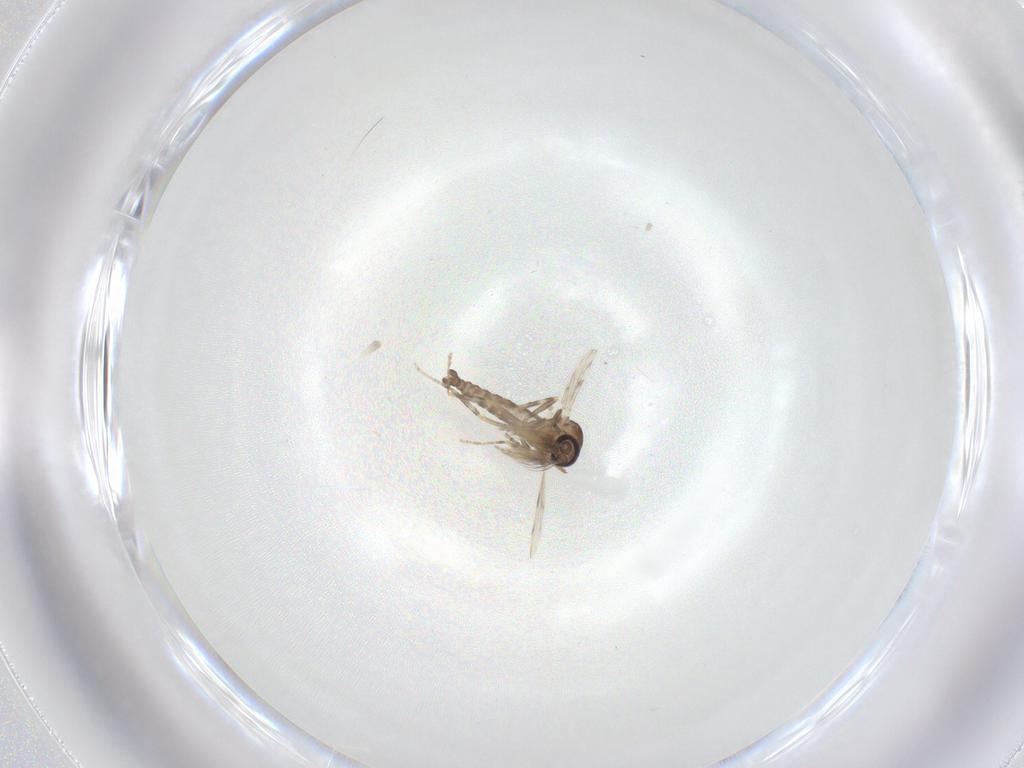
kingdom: Animalia
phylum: Arthropoda
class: Insecta
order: Diptera
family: Ceratopogonidae
